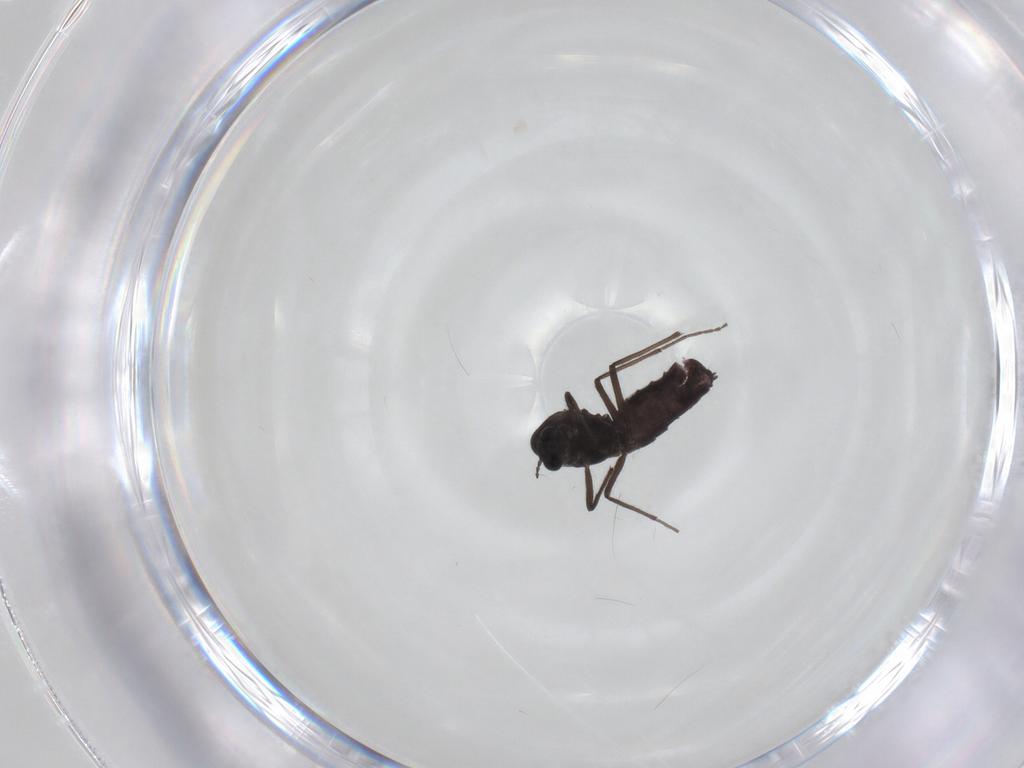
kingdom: Animalia
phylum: Arthropoda
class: Insecta
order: Diptera
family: Chironomidae
